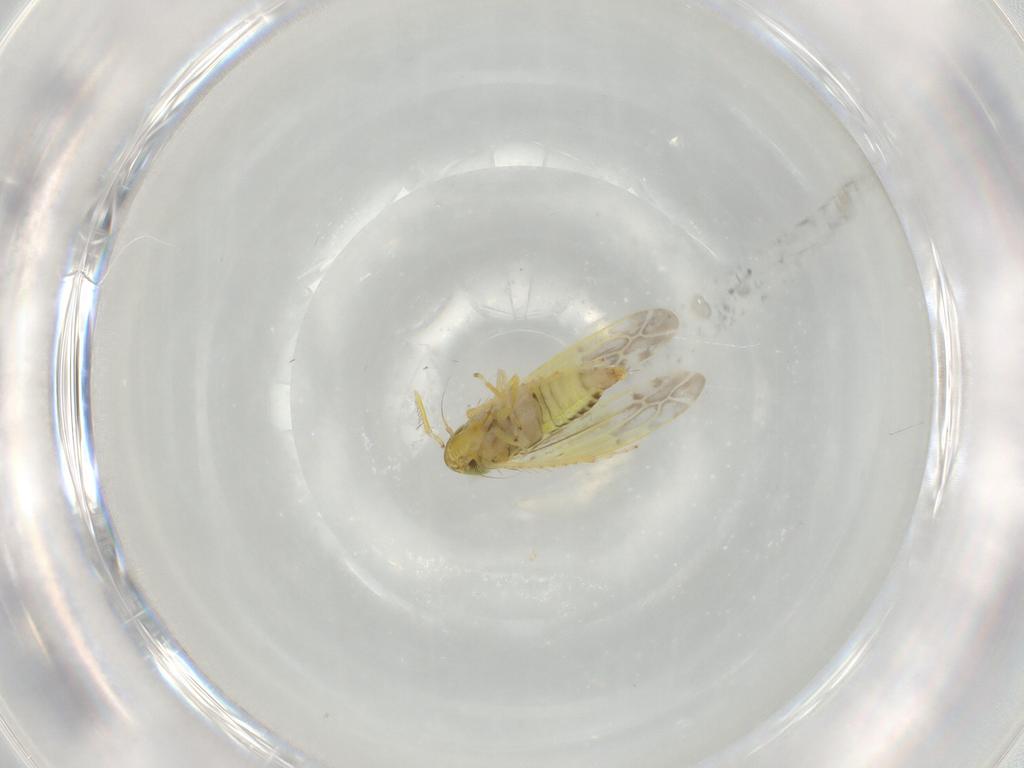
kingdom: Animalia
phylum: Arthropoda
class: Insecta
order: Hemiptera
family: Cicadellidae
